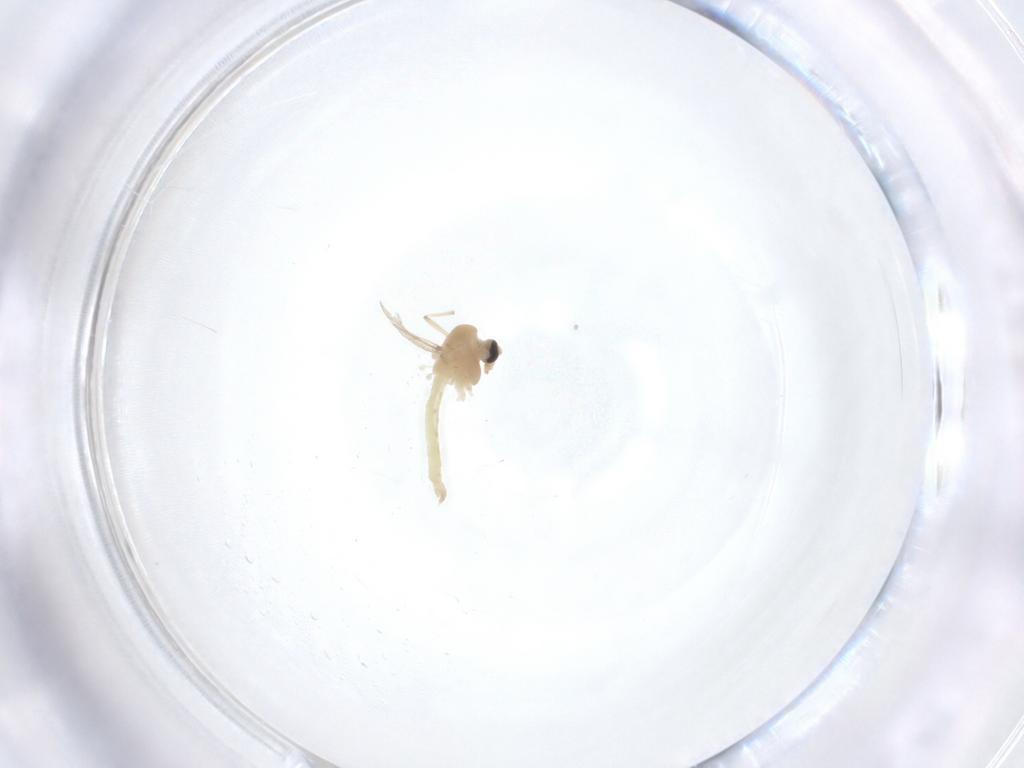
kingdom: Animalia
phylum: Arthropoda
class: Insecta
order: Diptera
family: Chironomidae
